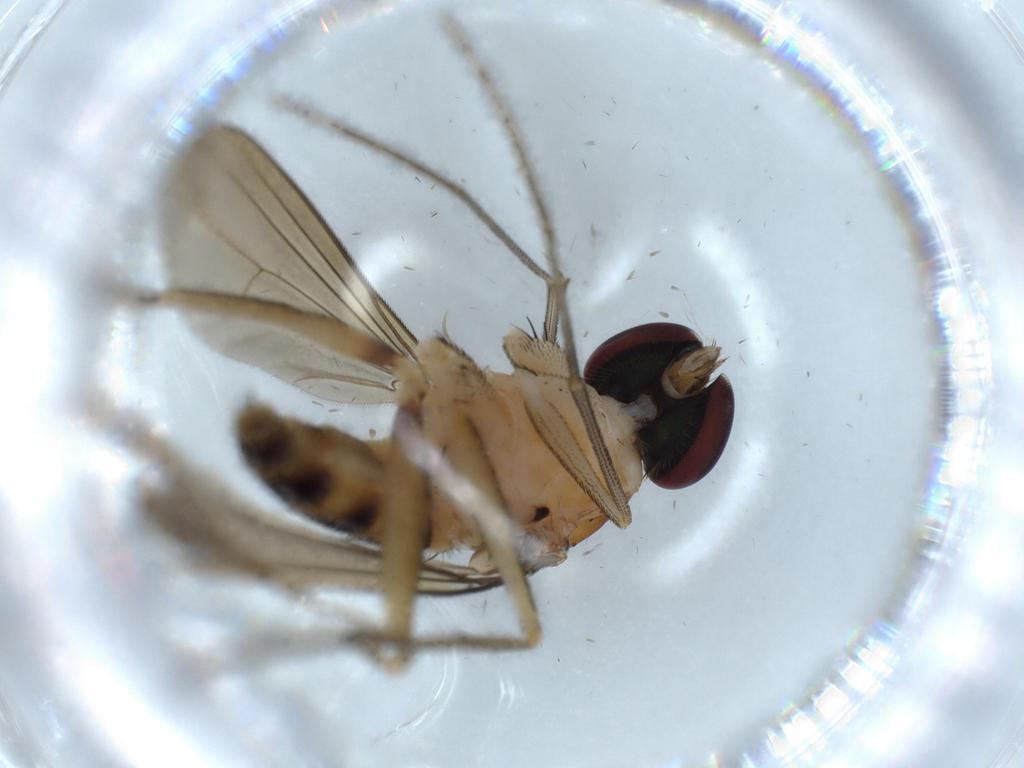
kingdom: Animalia
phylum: Arthropoda
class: Insecta
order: Diptera
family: Dolichopodidae
